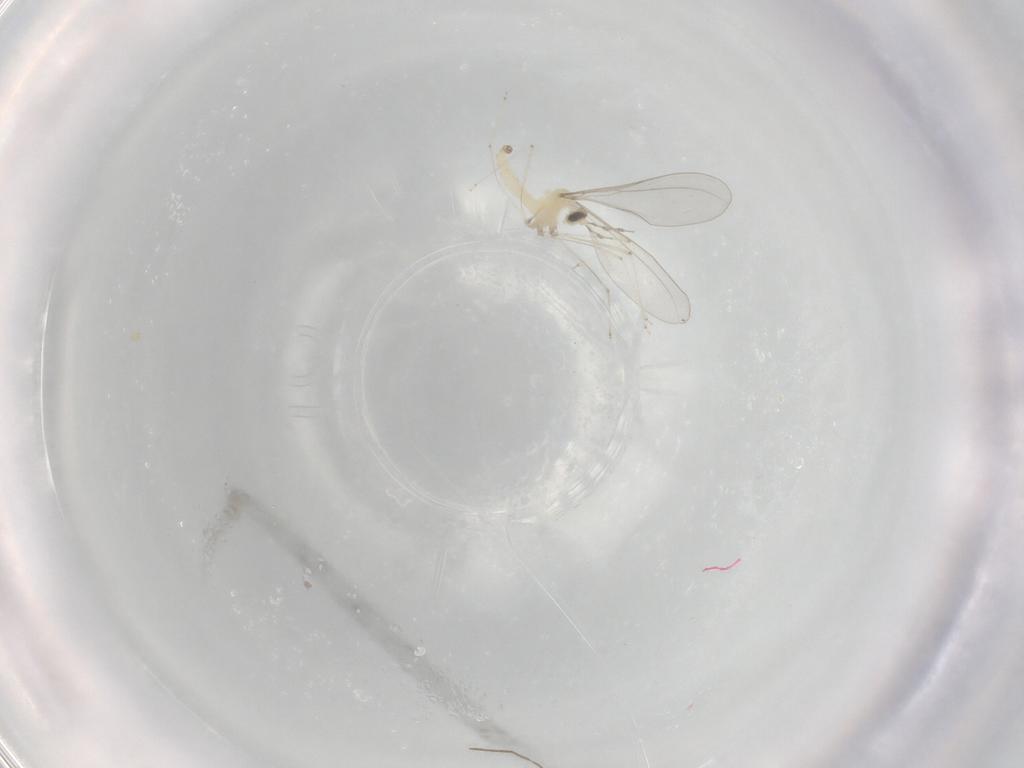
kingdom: Animalia
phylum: Arthropoda
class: Insecta
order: Diptera
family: Cecidomyiidae
